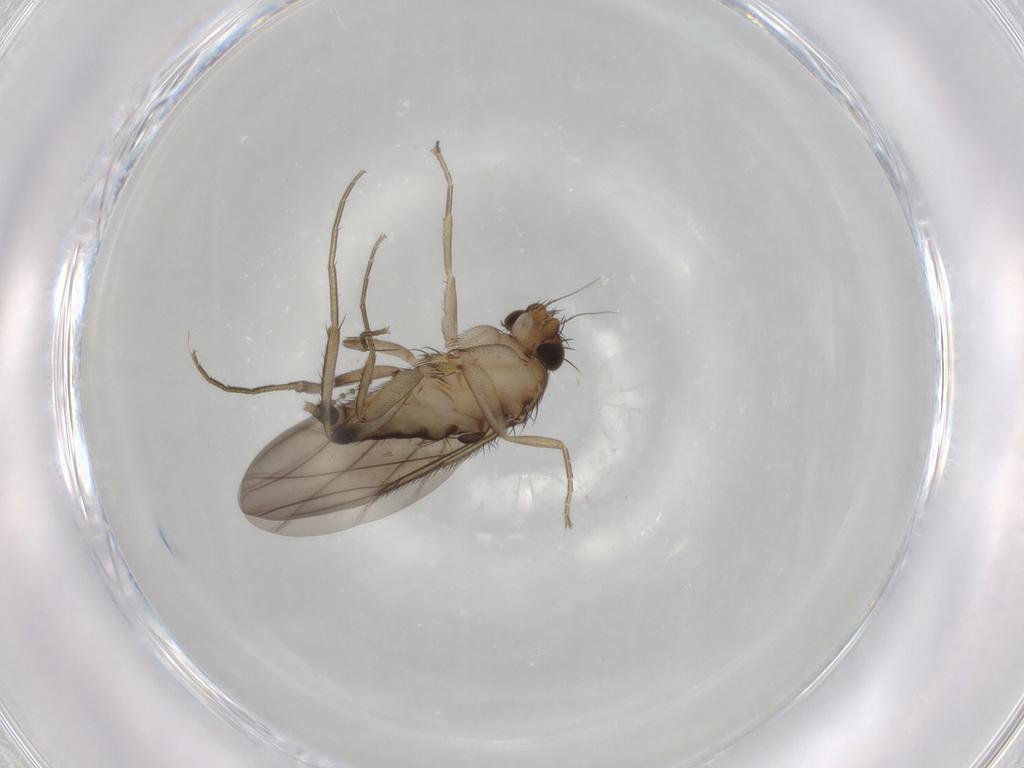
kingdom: Animalia
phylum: Arthropoda
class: Insecta
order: Diptera
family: Phoridae
